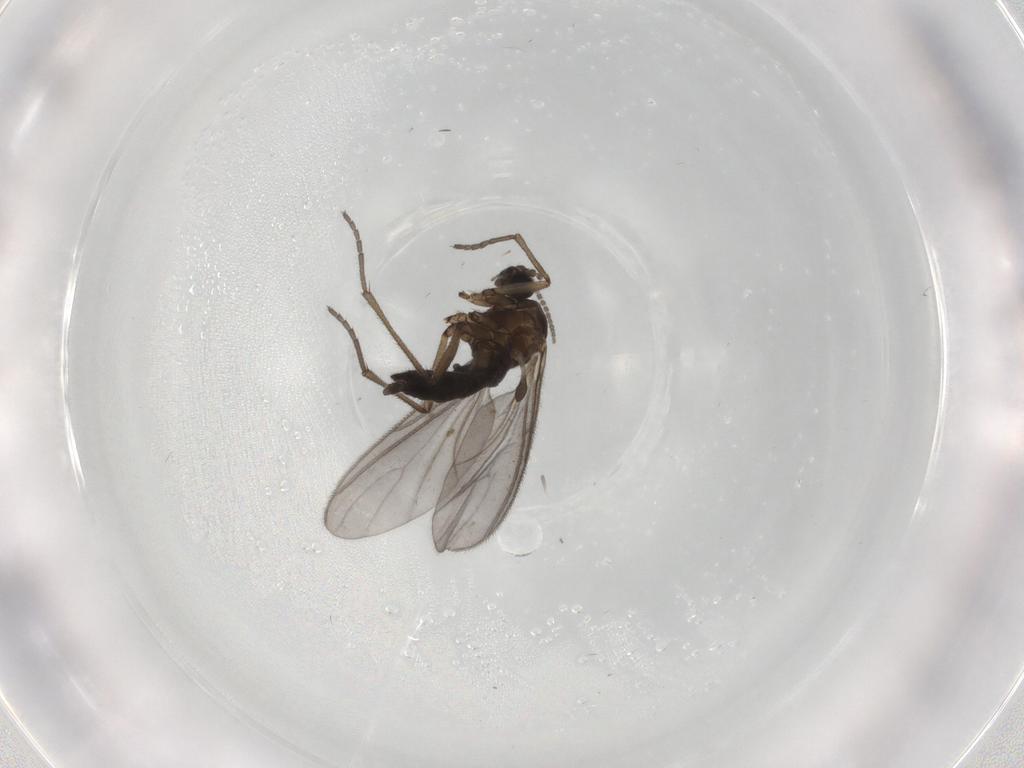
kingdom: Animalia
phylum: Arthropoda
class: Insecta
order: Diptera
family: Sciaridae
